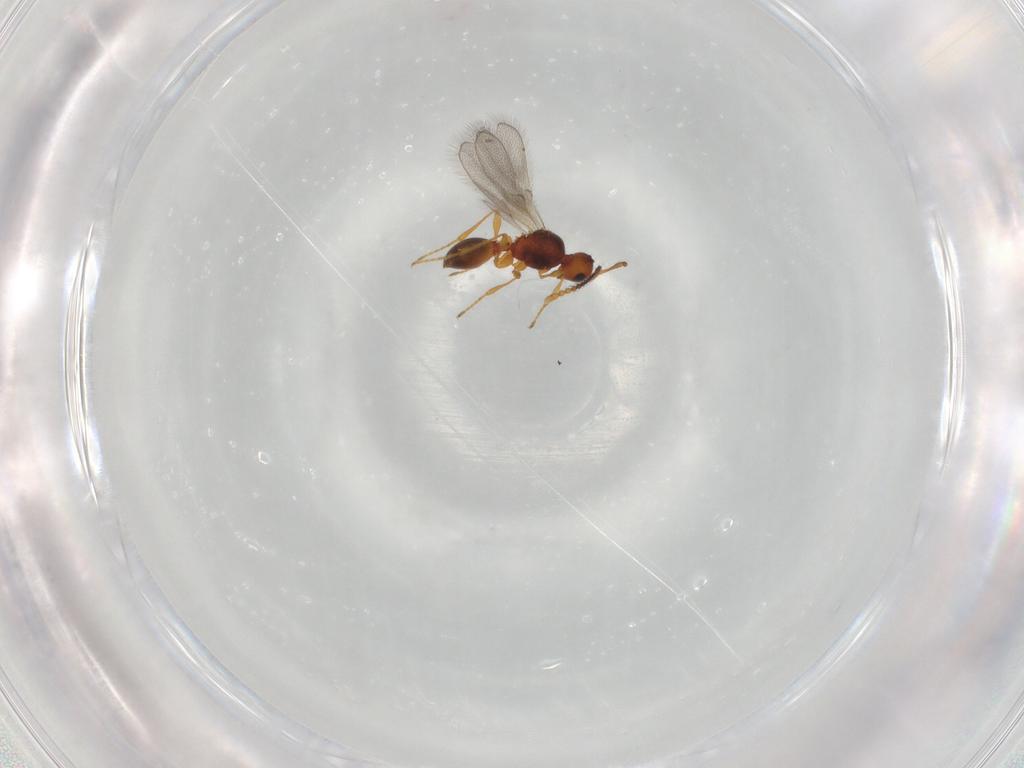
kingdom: Animalia
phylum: Arthropoda
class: Insecta
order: Hymenoptera
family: Diapriidae
